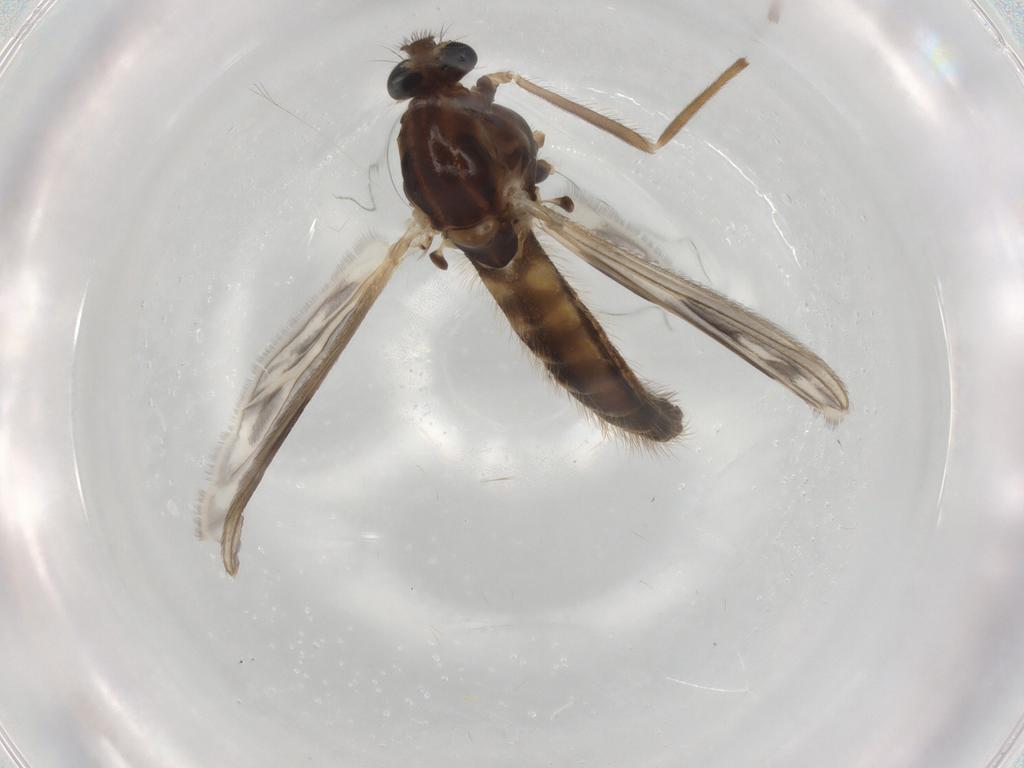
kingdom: Animalia
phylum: Arthropoda
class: Insecta
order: Diptera
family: Chironomidae
